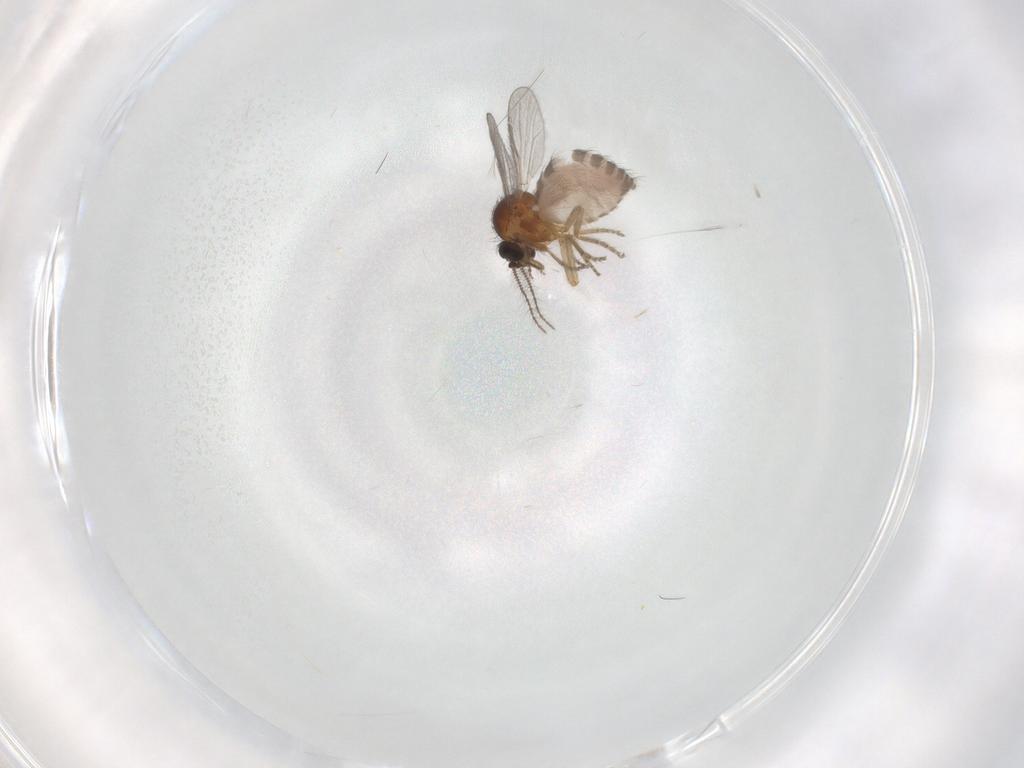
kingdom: Animalia
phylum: Arthropoda
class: Insecta
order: Diptera
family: Ceratopogonidae
